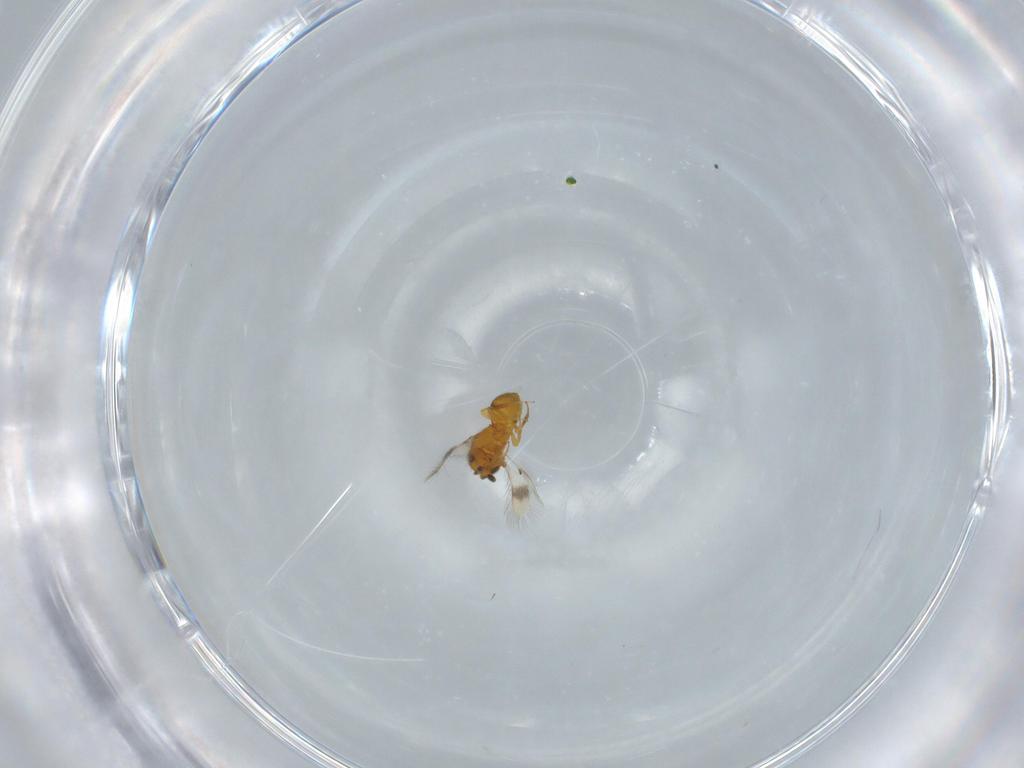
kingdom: Animalia
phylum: Arthropoda
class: Insecta
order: Hymenoptera
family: Scelionidae
